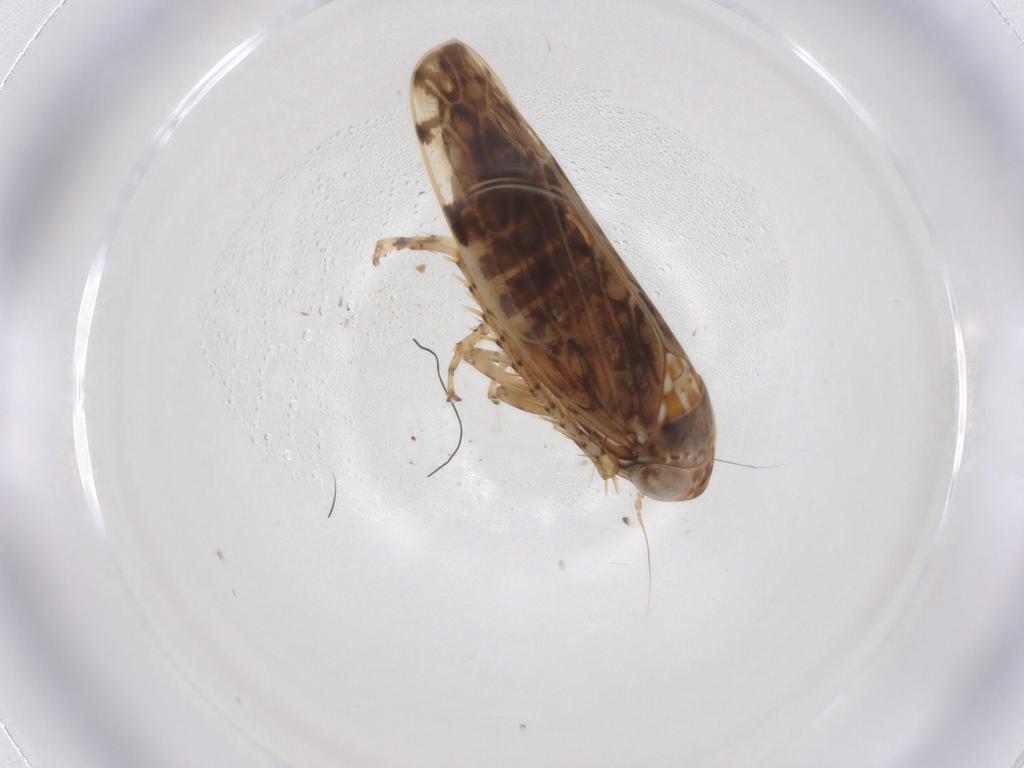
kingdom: Animalia
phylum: Arthropoda
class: Insecta
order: Hemiptera
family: Cicadellidae
